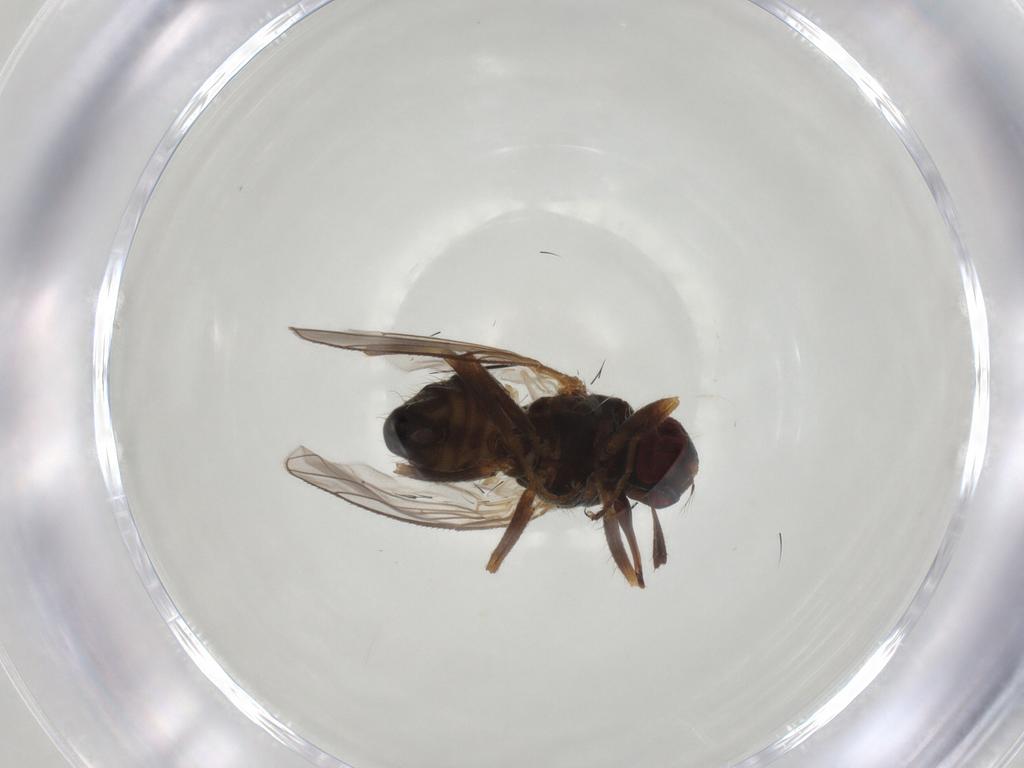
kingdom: Animalia
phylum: Arthropoda
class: Insecta
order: Diptera
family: Muscidae
